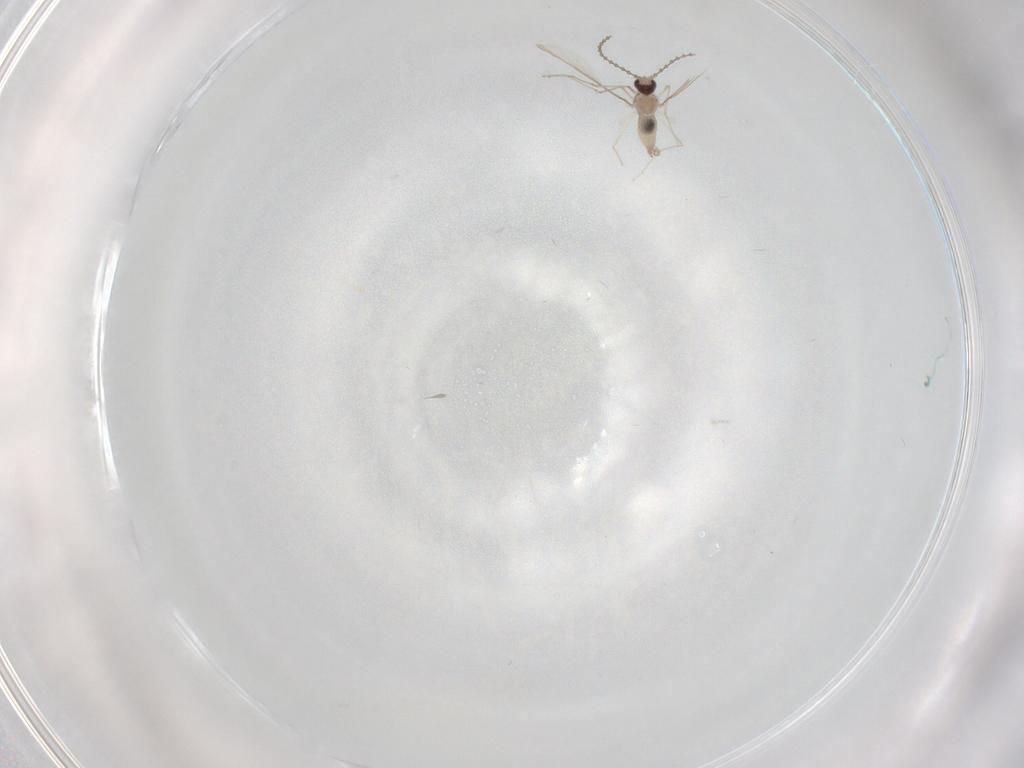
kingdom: Animalia
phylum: Arthropoda
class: Insecta
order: Diptera
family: Cecidomyiidae
